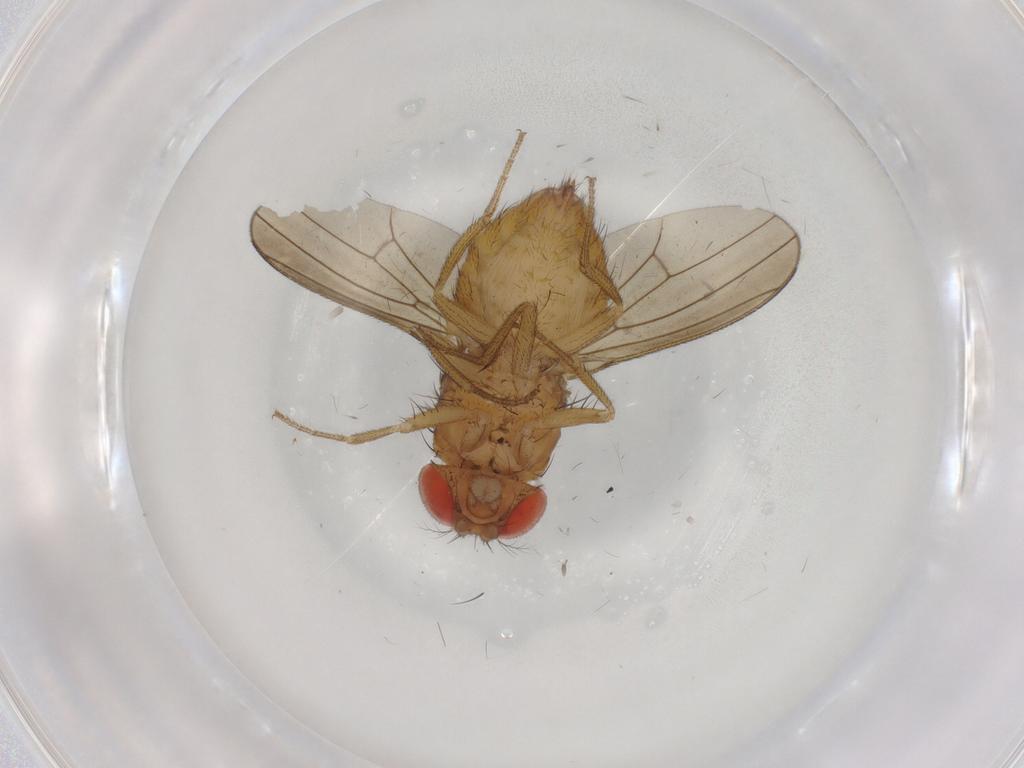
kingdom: Animalia
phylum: Arthropoda
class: Insecta
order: Diptera
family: Drosophilidae
